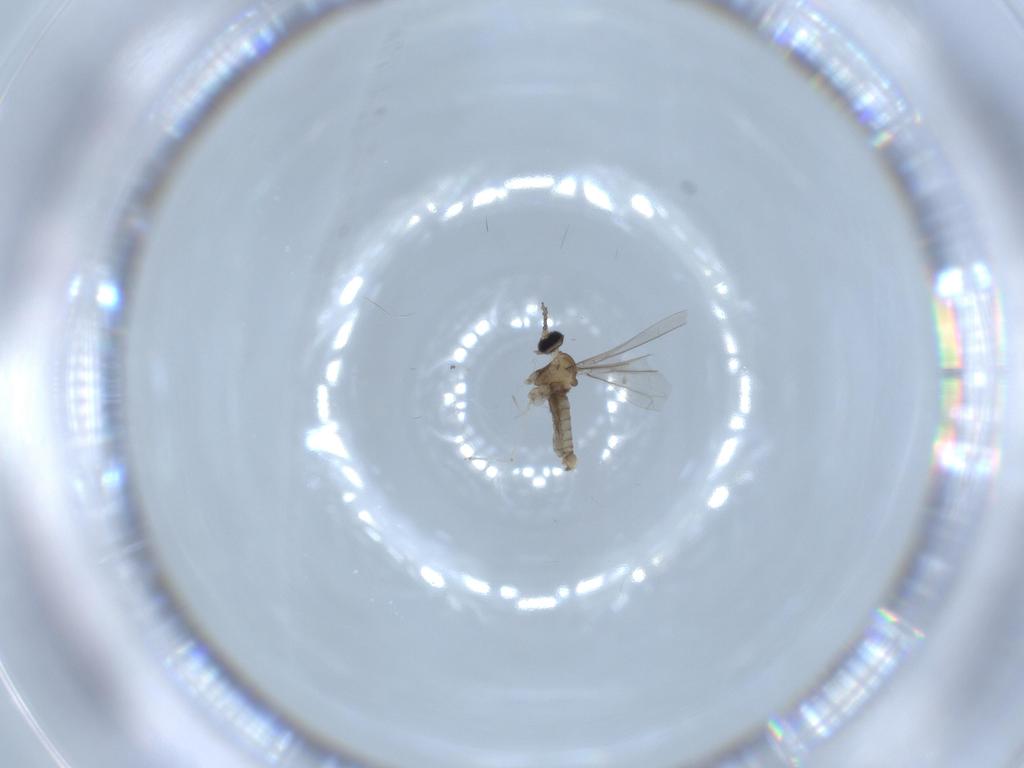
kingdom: Animalia
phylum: Arthropoda
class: Insecta
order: Diptera
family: Cecidomyiidae
